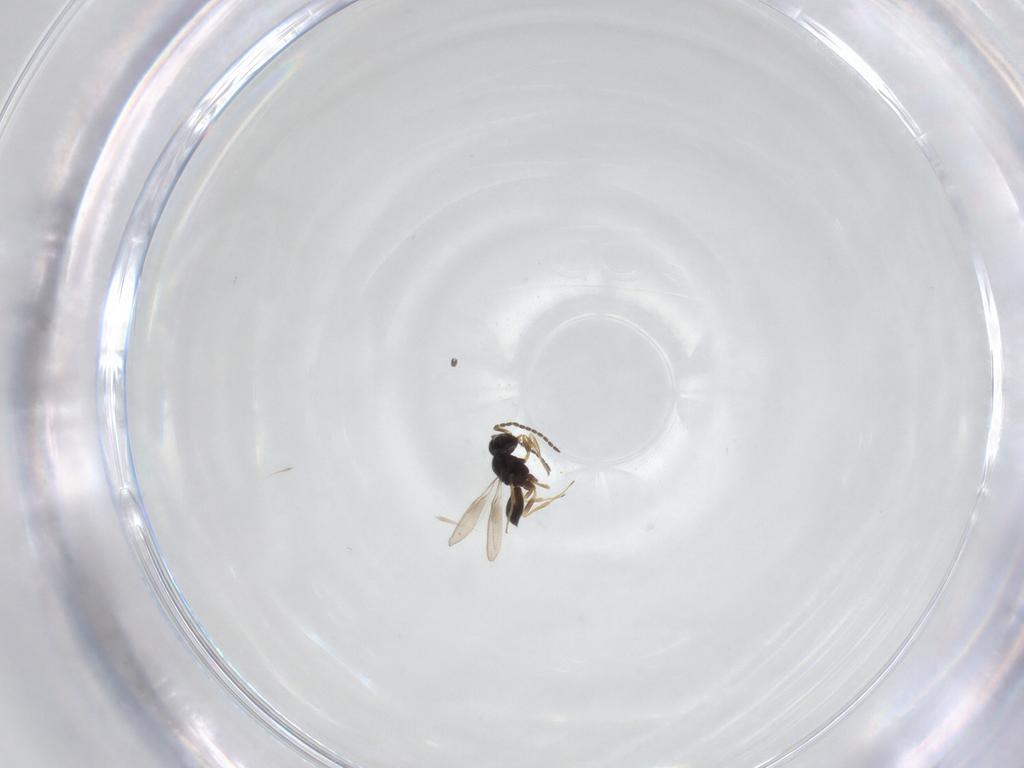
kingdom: Animalia
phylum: Arthropoda
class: Insecta
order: Hymenoptera
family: Scelionidae
